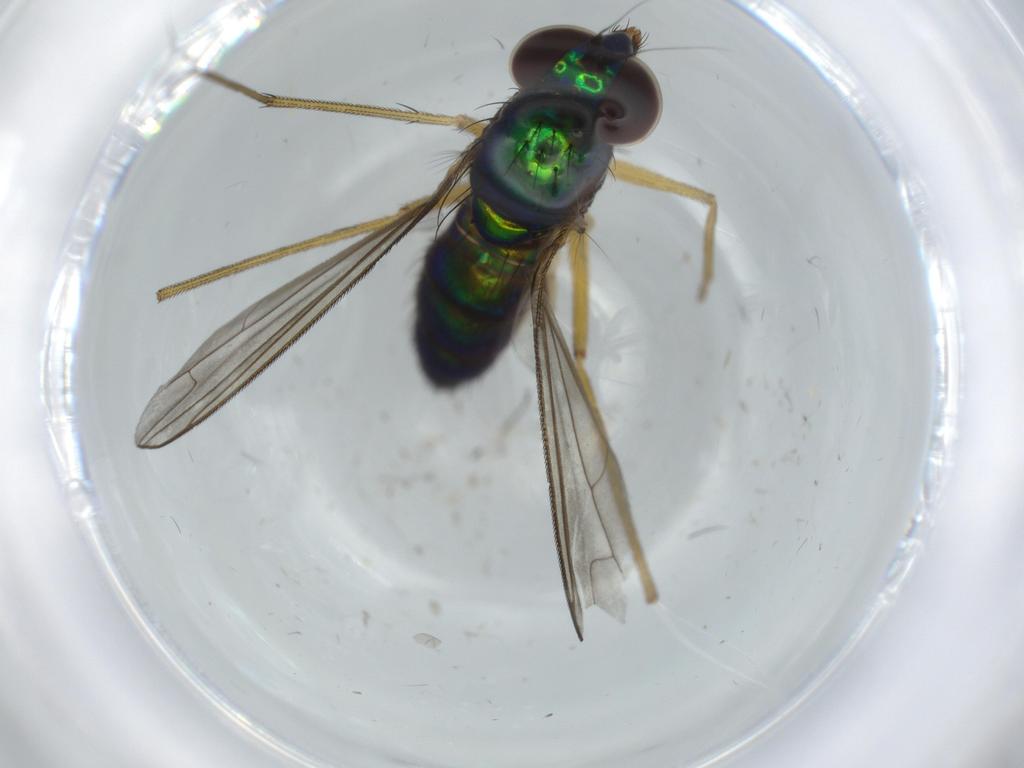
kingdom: Animalia
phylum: Arthropoda
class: Insecta
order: Diptera
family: Dolichopodidae
